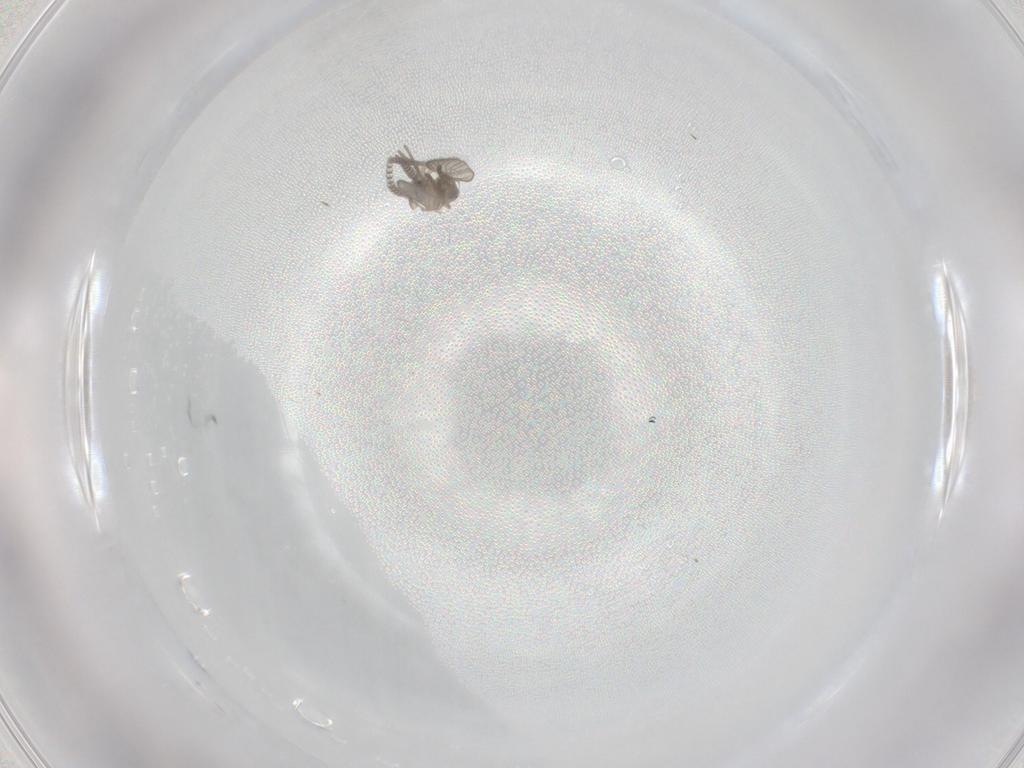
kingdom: Animalia
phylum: Arthropoda
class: Insecta
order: Diptera
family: Psychodidae
